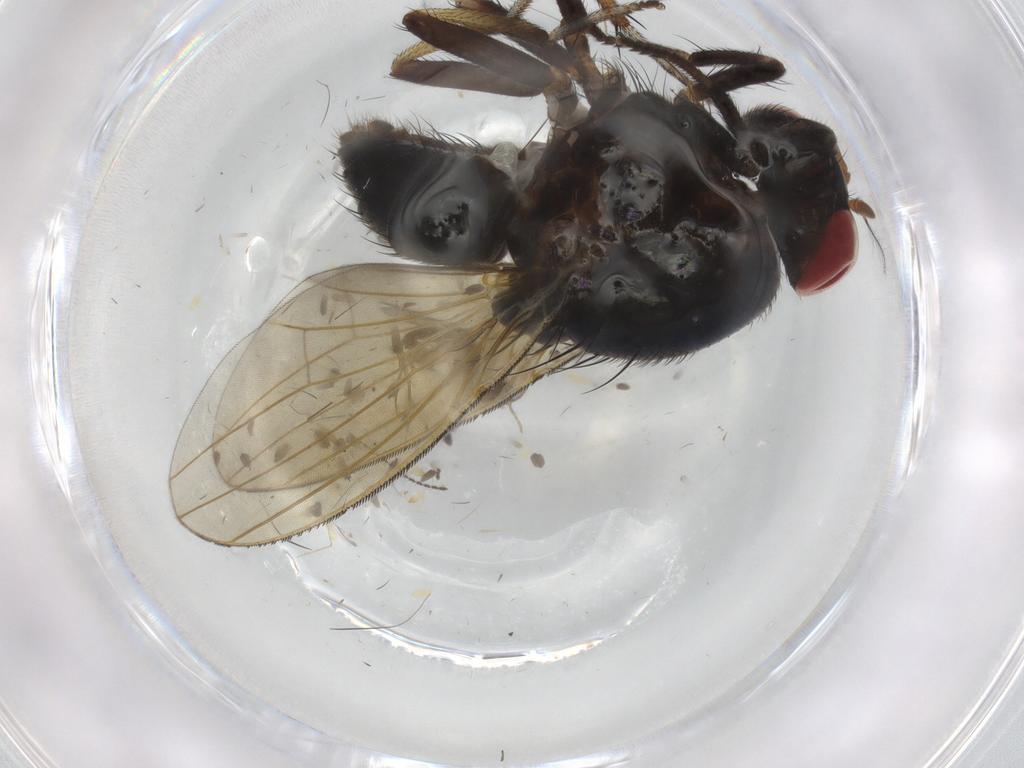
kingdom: Animalia
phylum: Arthropoda
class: Insecta
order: Diptera
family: Lauxaniidae
